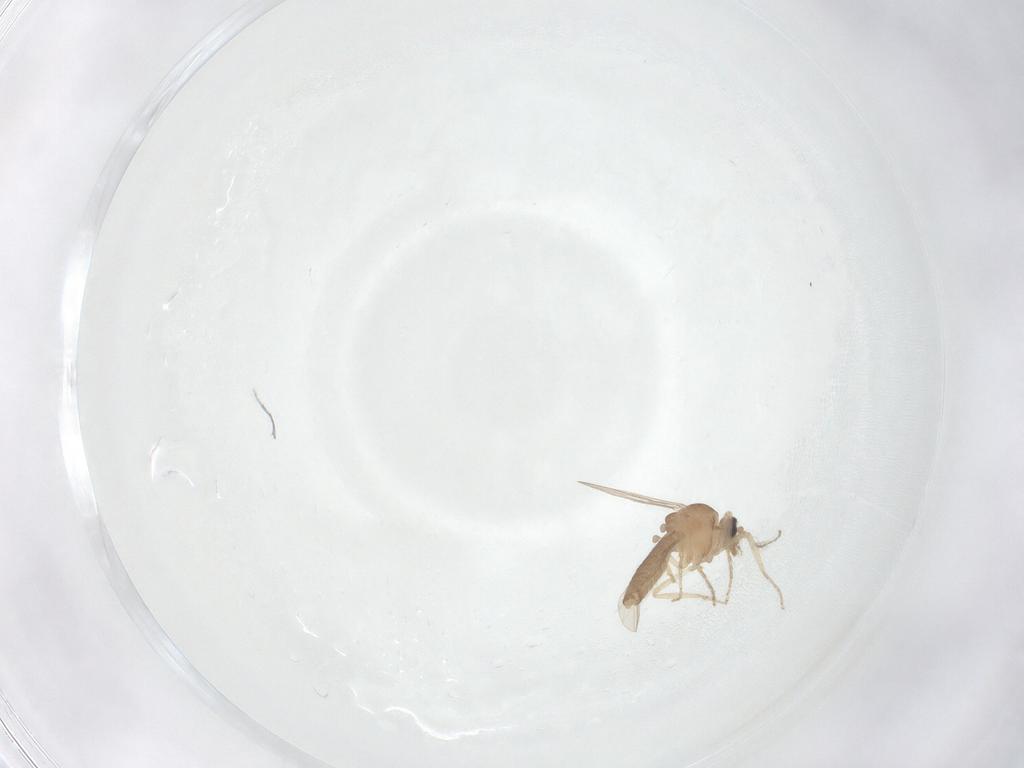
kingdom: Animalia
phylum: Arthropoda
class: Insecta
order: Diptera
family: Ceratopogonidae
